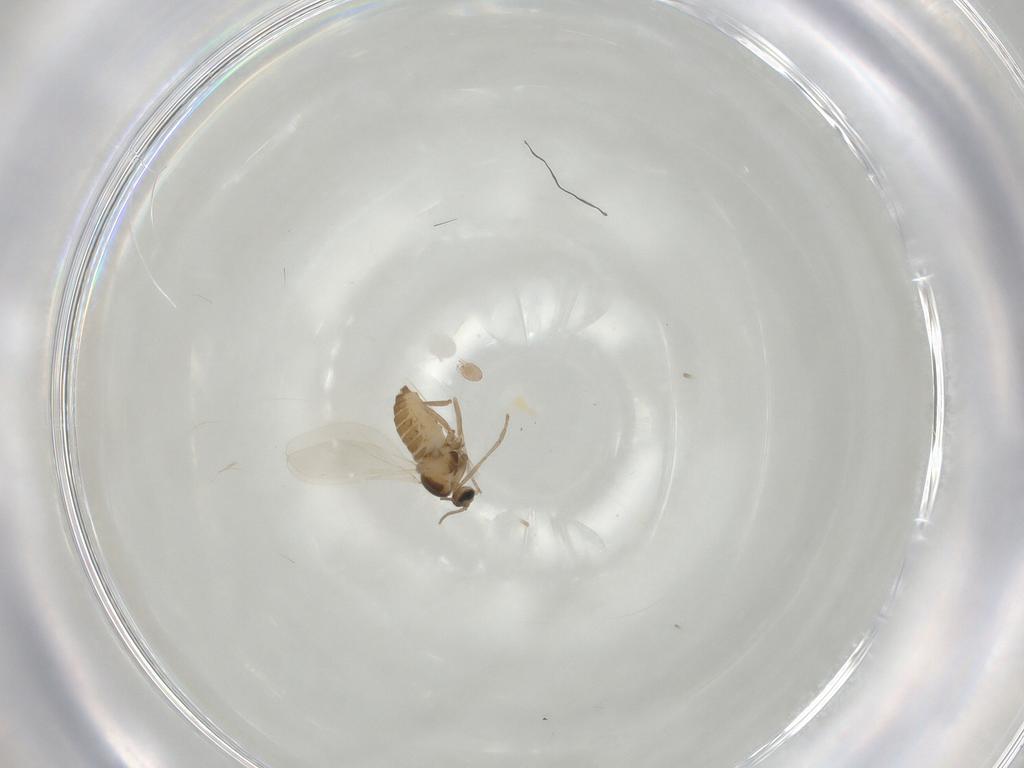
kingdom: Animalia
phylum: Arthropoda
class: Insecta
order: Diptera
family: Cecidomyiidae
